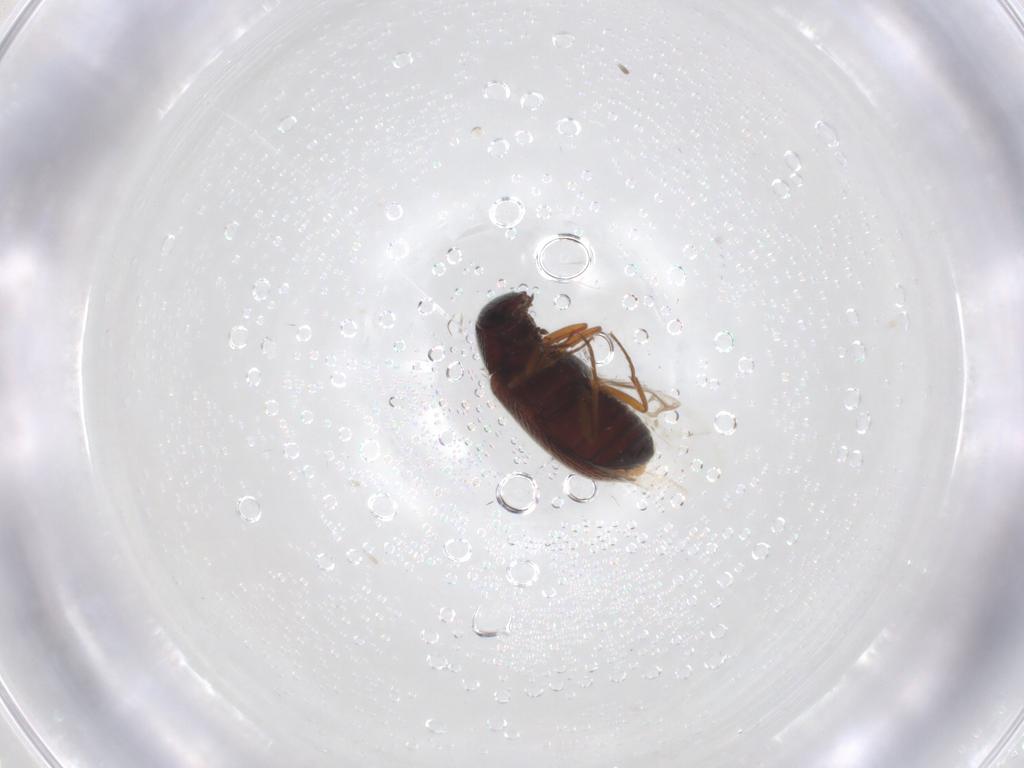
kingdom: Animalia
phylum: Arthropoda
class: Insecta
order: Coleoptera
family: Rhadalidae
